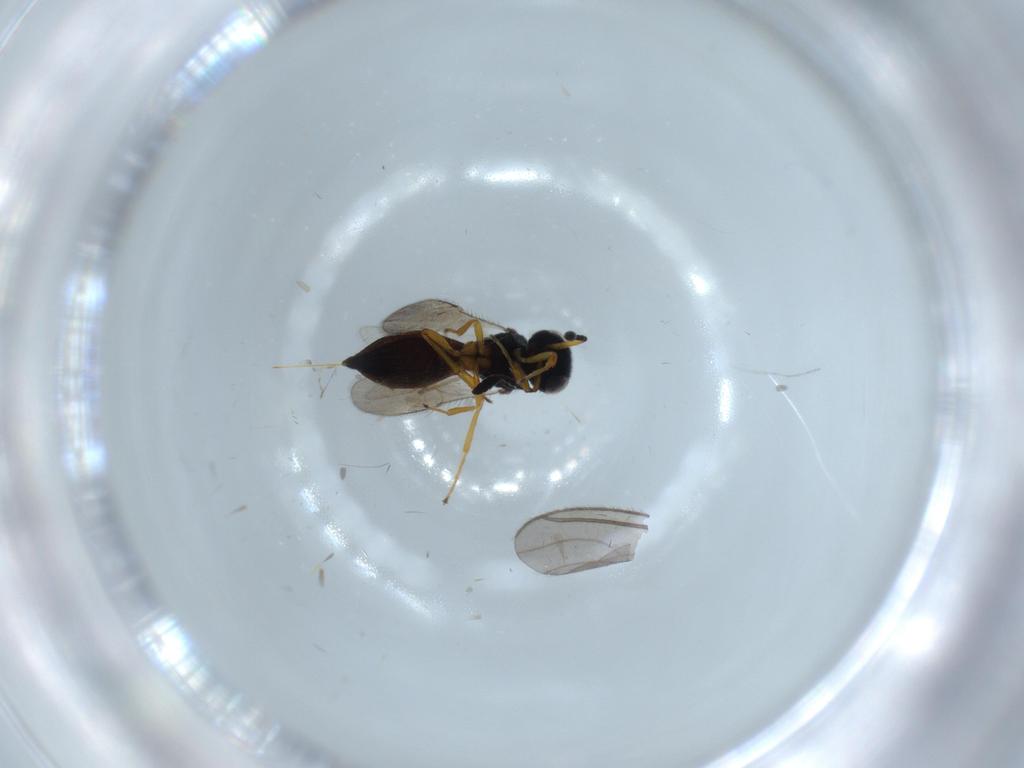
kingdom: Animalia
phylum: Arthropoda
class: Insecta
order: Hymenoptera
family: Scelionidae
